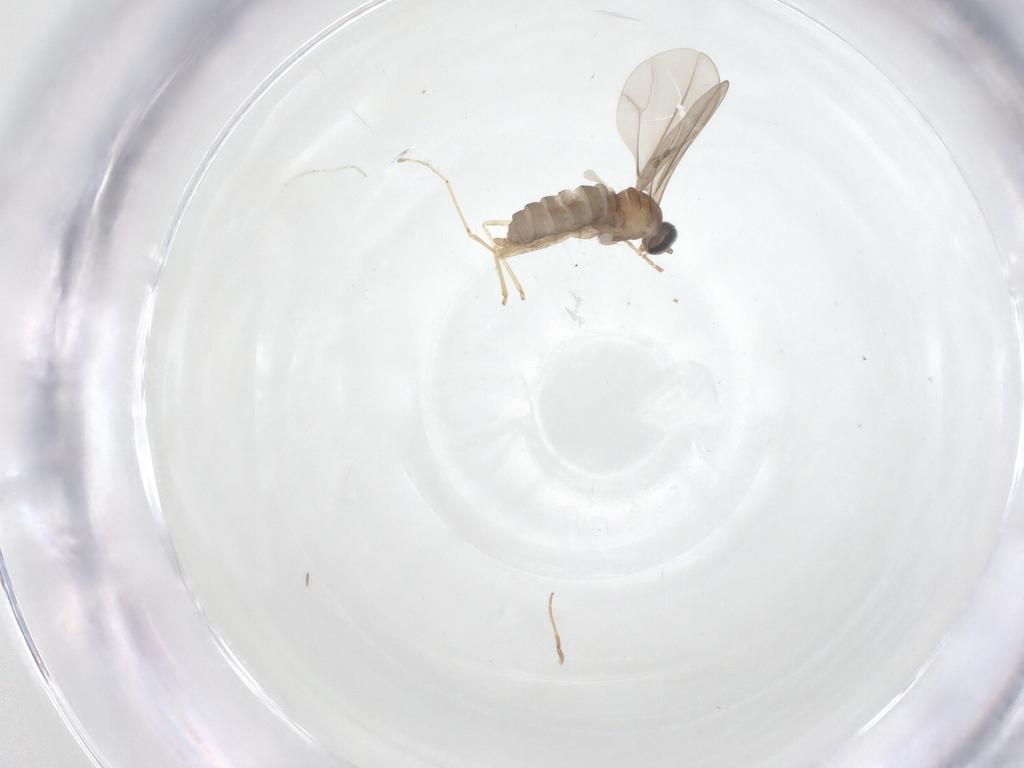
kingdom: Animalia
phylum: Arthropoda
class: Insecta
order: Diptera
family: Cecidomyiidae
